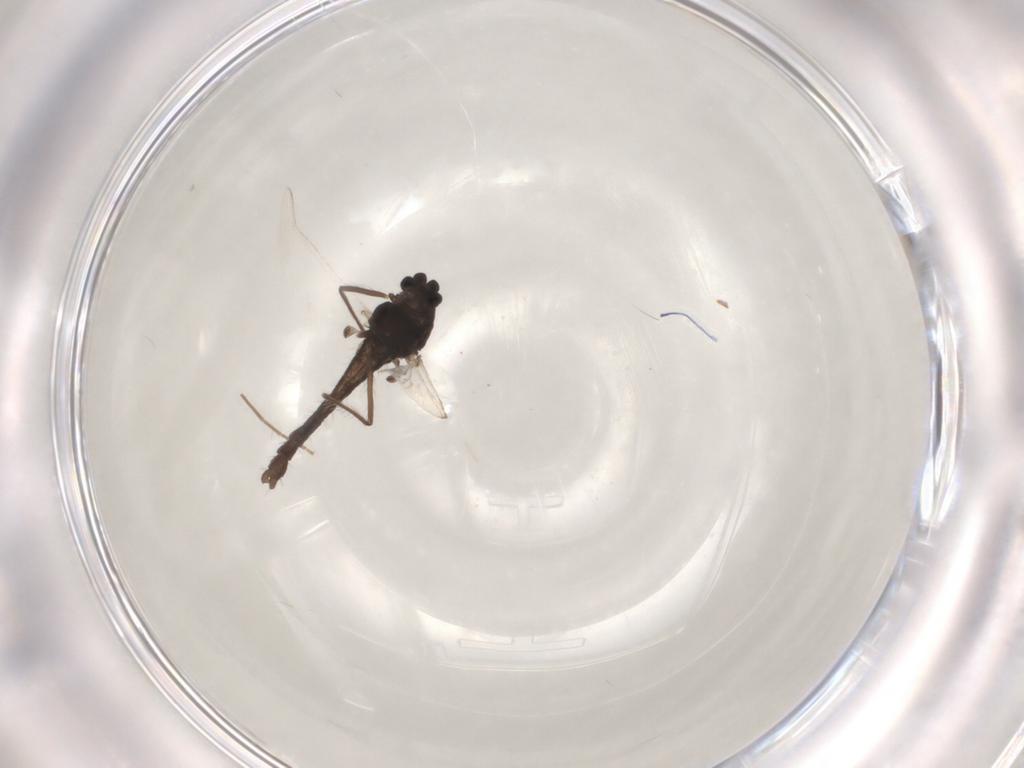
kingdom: Animalia
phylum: Arthropoda
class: Insecta
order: Diptera
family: Chironomidae
